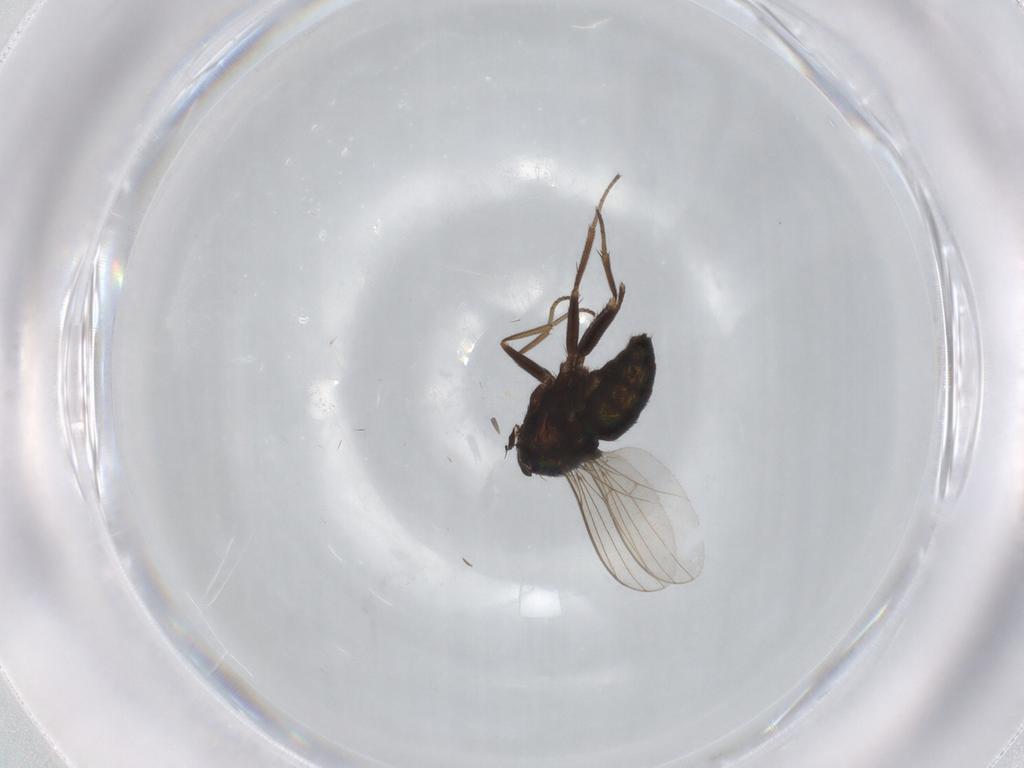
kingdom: Animalia
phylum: Arthropoda
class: Insecta
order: Diptera
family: Dolichopodidae
